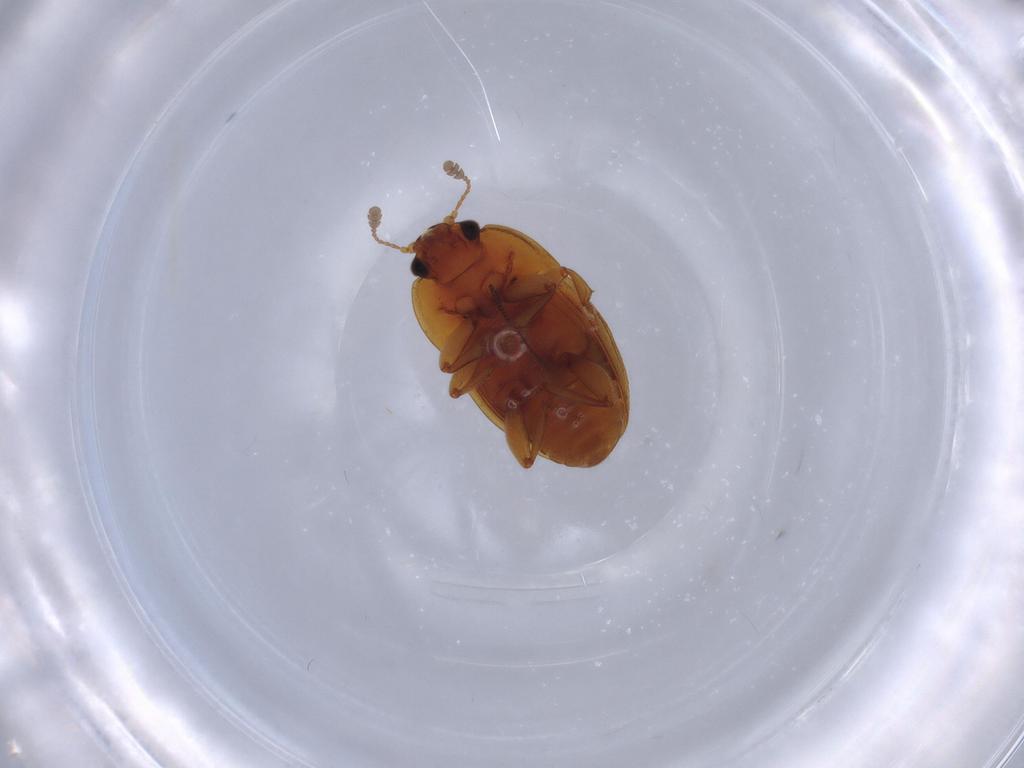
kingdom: Animalia
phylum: Arthropoda
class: Insecta
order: Coleoptera
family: Nitidulidae
